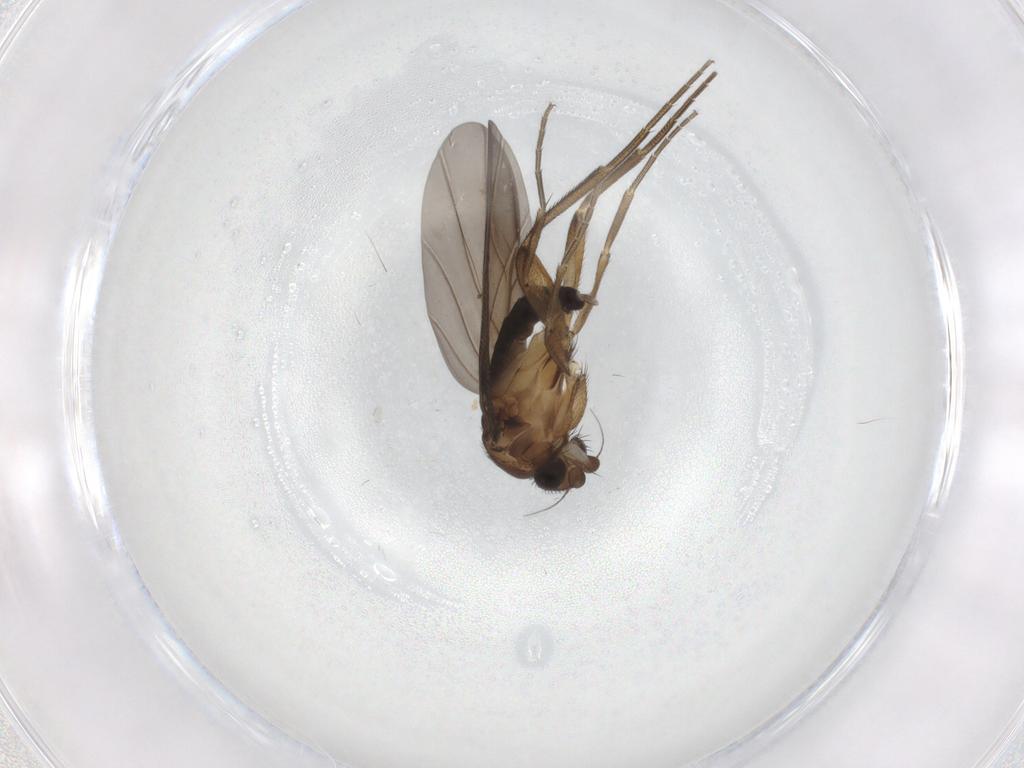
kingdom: Animalia
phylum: Arthropoda
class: Insecta
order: Diptera
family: Phoridae
